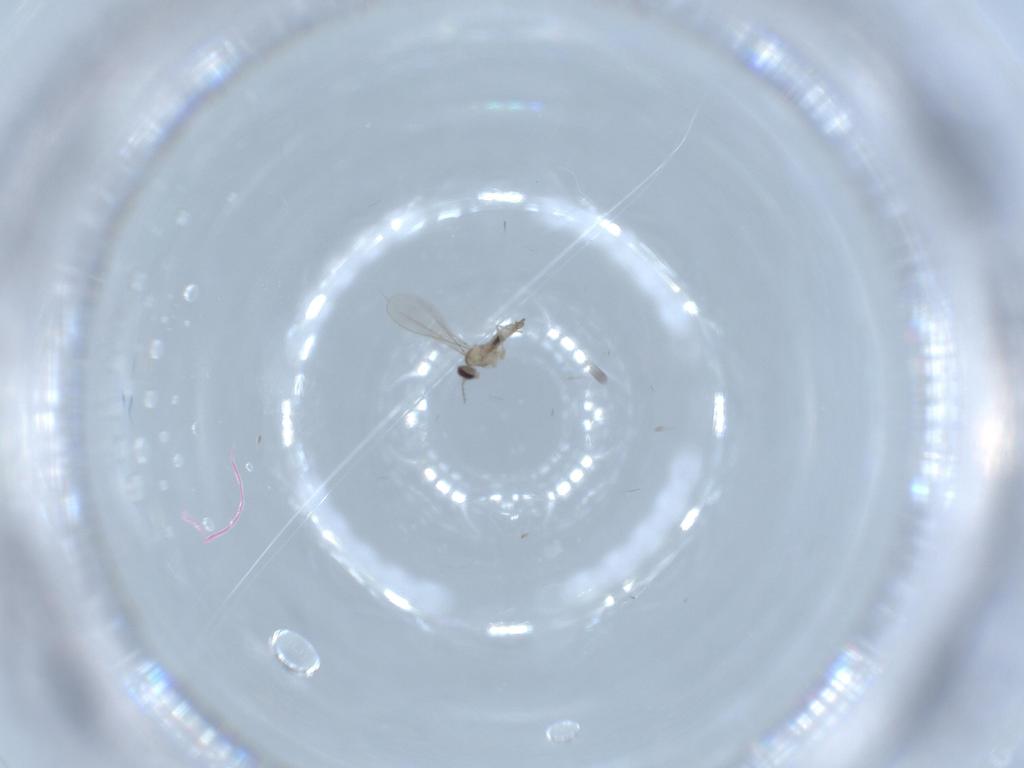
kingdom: Animalia
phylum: Arthropoda
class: Insecta
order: Diptera
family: Cecidomyiidae
